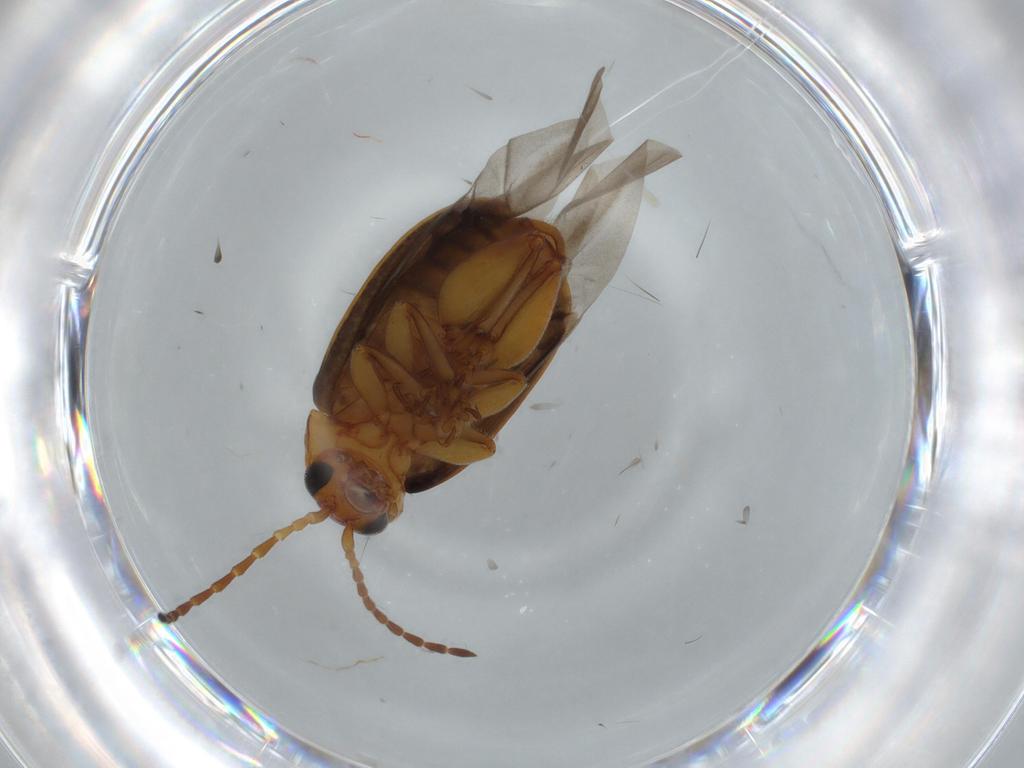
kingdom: Animalia
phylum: Arthropoda
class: Insecta
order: Coleoptera
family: Chrysomelidae
